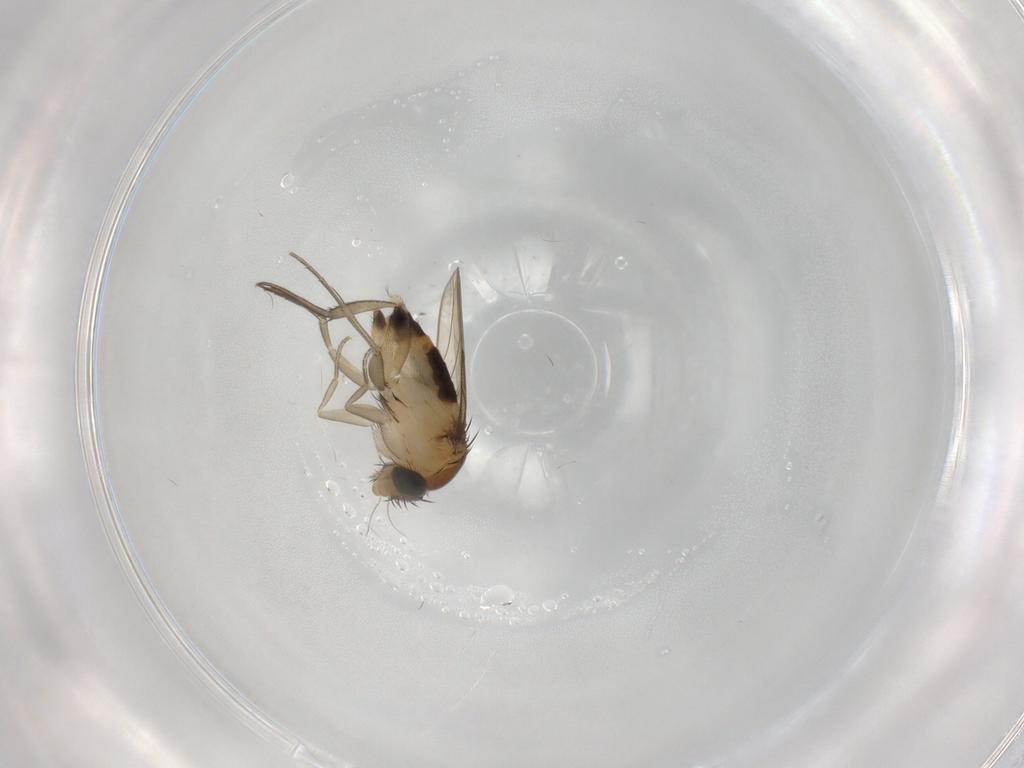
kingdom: Animalia
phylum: Arthropoda
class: Insecta
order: Diptera
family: Phoridae
